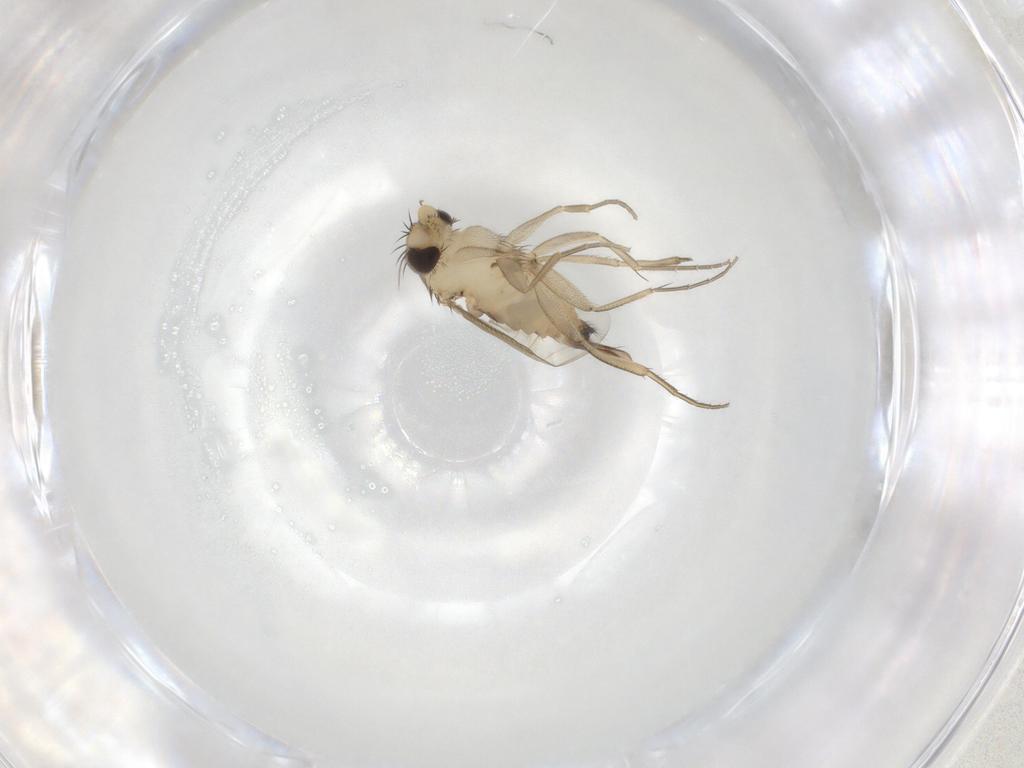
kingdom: Animalia
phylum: Arthropoda
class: Insecta
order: Diptera
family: Phoridae
